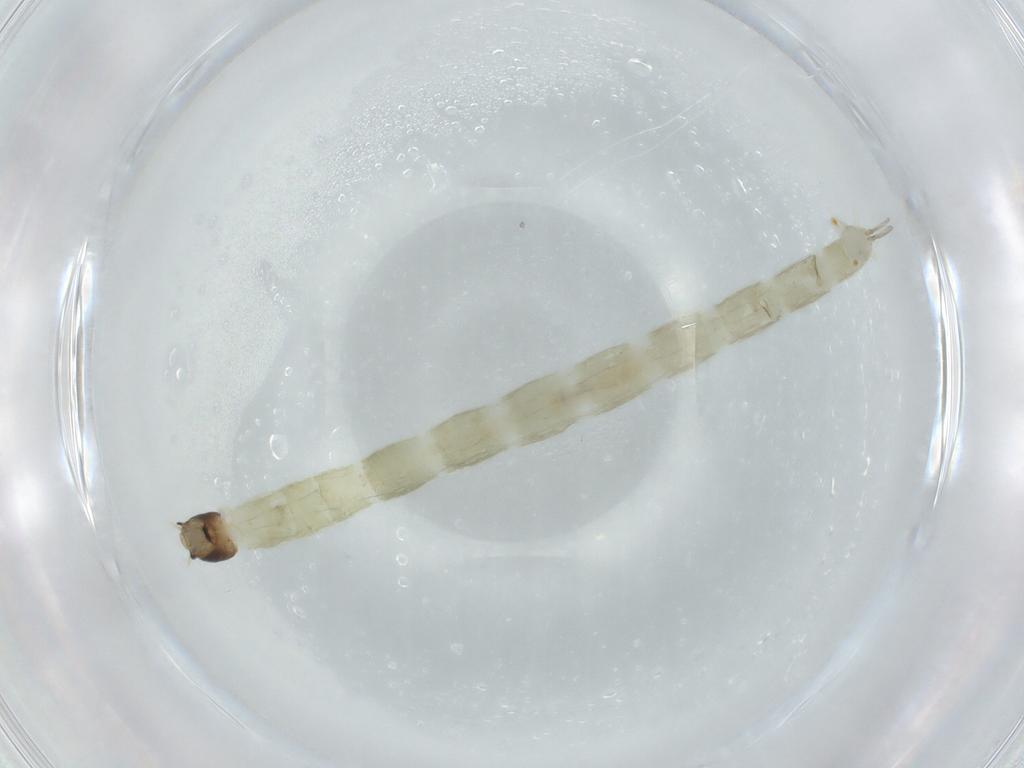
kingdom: Animalia
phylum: Arthropoda
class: Insecta
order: Diptera
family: Chironomidae
